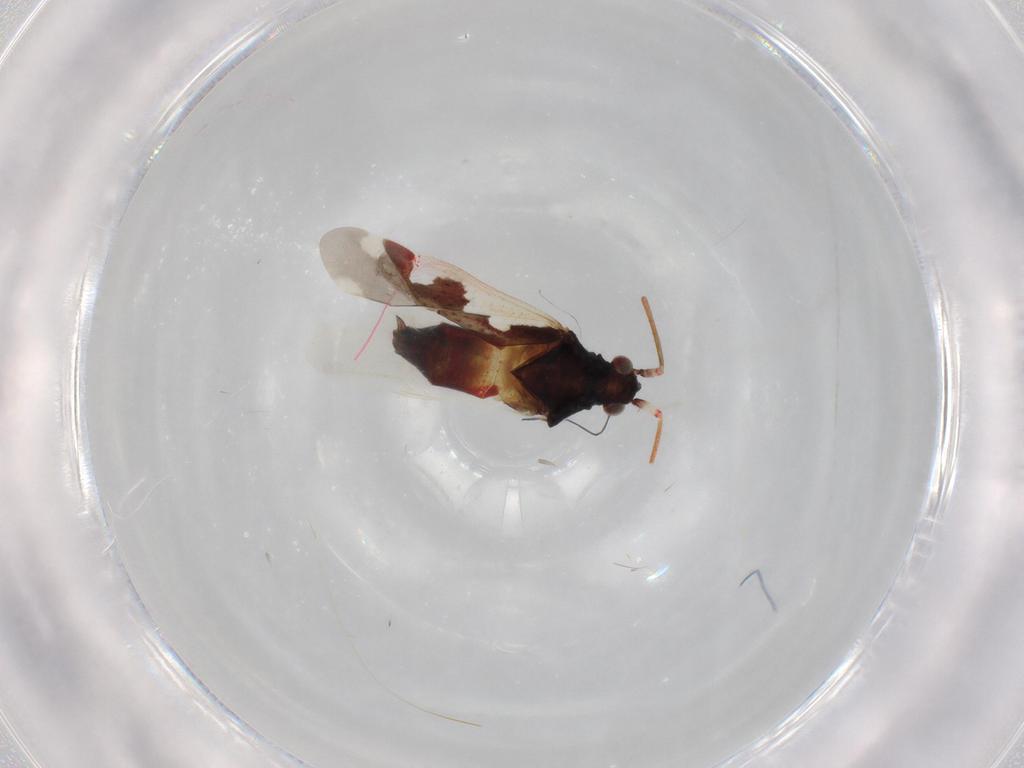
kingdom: Animalia
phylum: Arthropoda
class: Insecta
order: Hemiptera
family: Miridae
